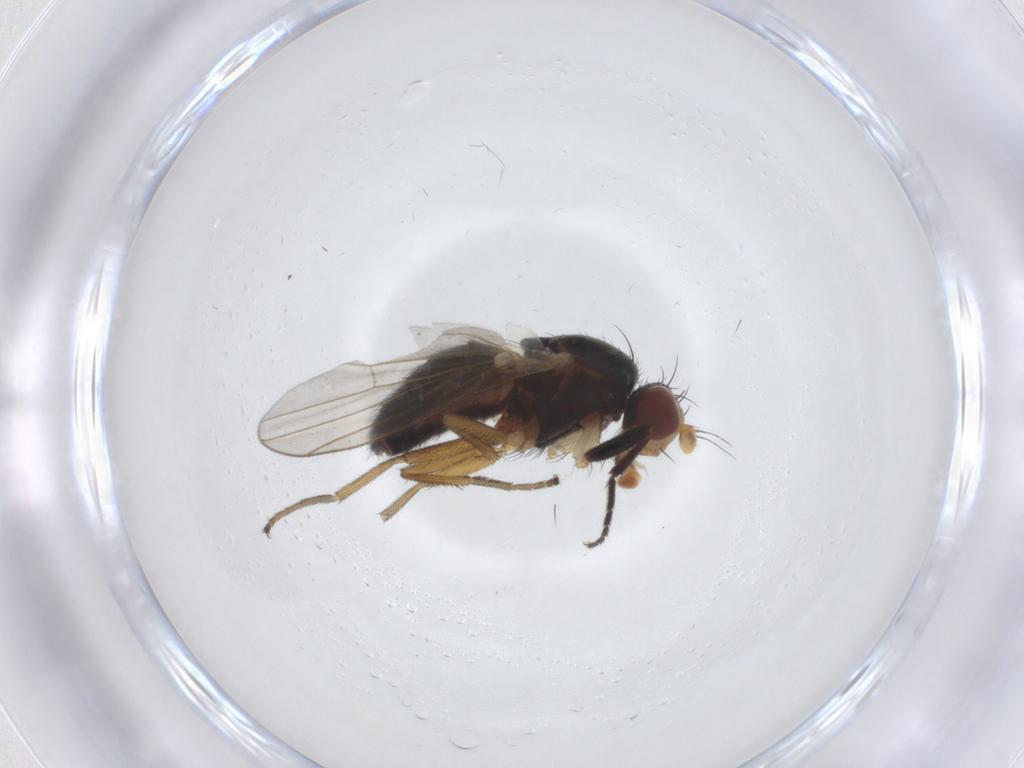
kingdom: Animalia
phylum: Arthropoda
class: Insecta
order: Diptera
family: Heleomyzidae
